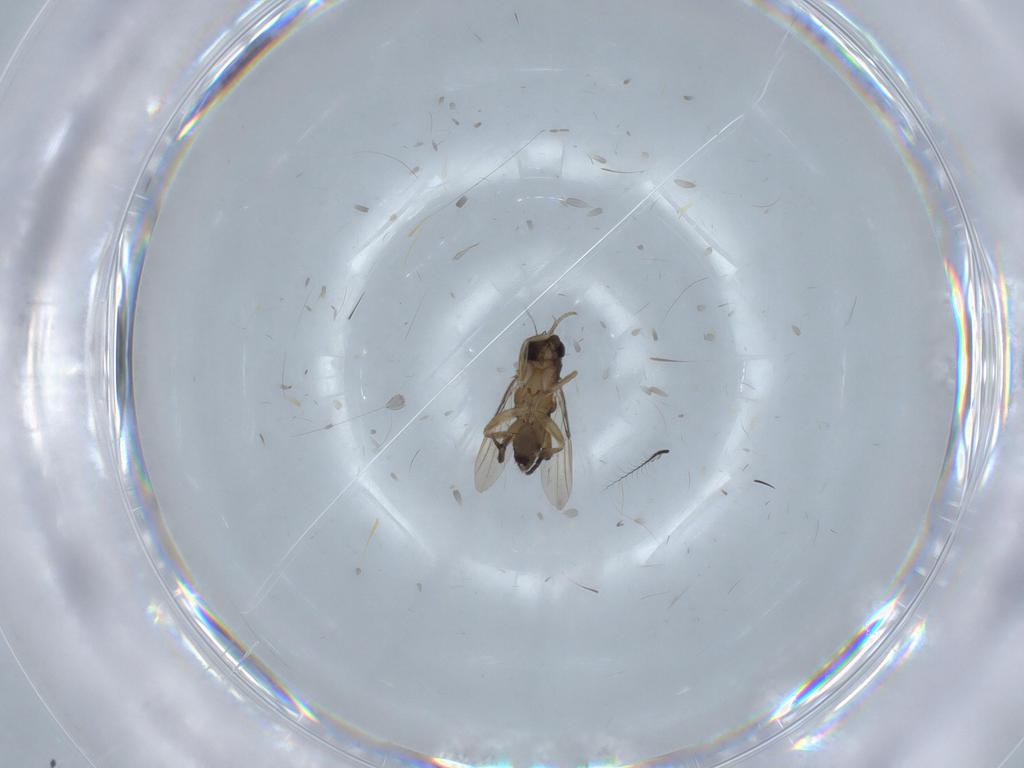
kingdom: Animalia
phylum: Arthropoda
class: Insecta
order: Diptera
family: Phoridae
